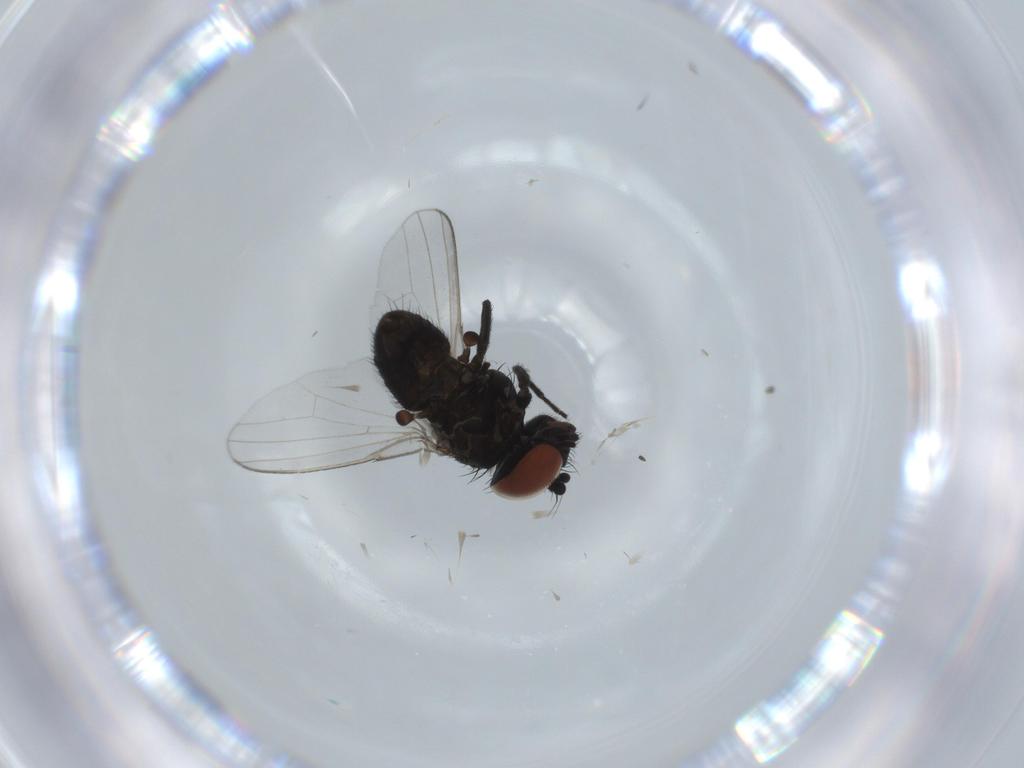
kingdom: Animalia
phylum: Arthropoda
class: Insecta
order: Diptera
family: Milichiidae
